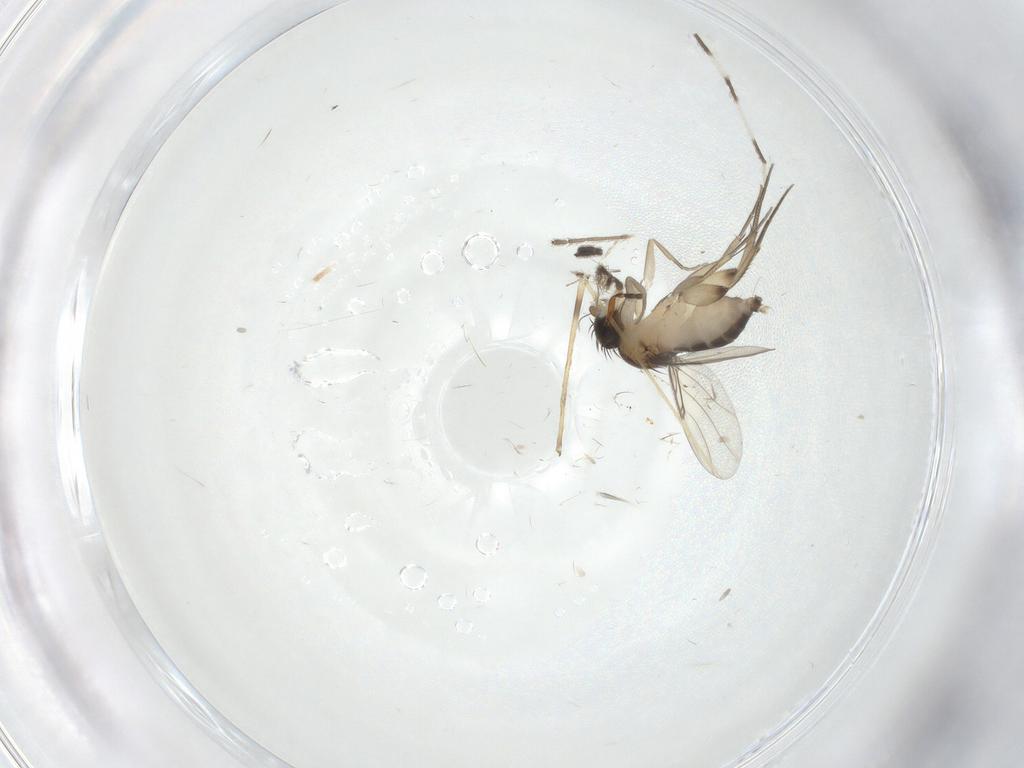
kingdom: Animalia
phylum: Arthropoda
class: Insecta
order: Diptera
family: Phoridae
